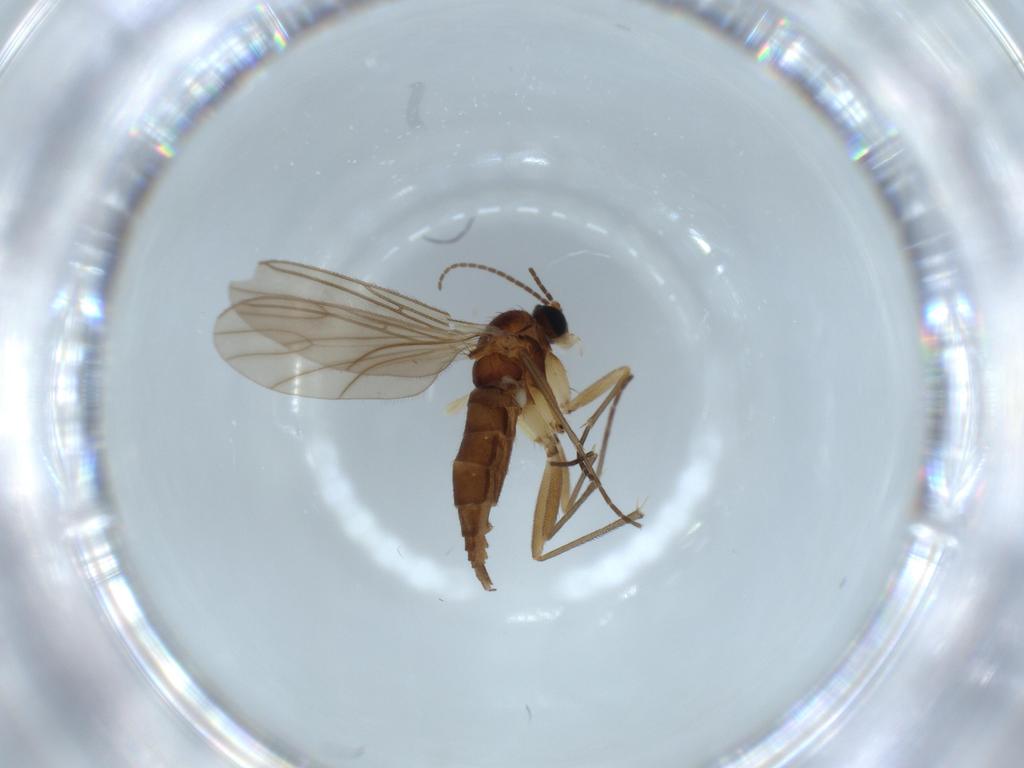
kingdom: Animalia
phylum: Arthropoda
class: Insecta
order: Diptera
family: Sciaridae
